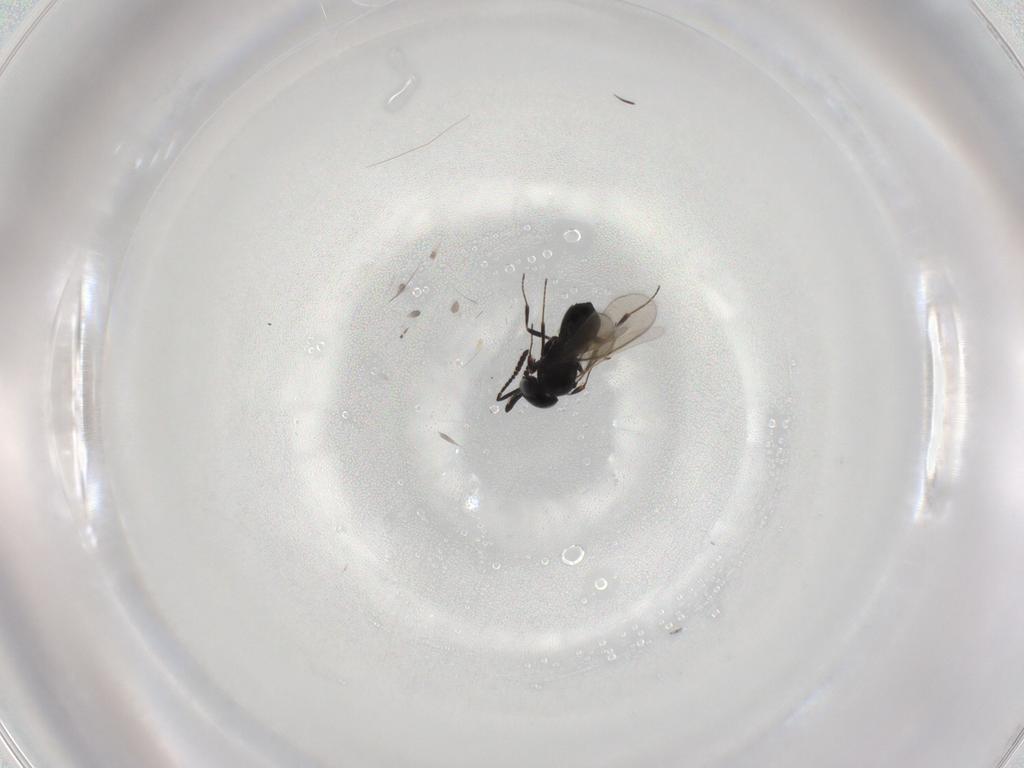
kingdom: Animalia
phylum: Arthropoda
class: Insecta
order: Hymenoptera
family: Scelionidae
